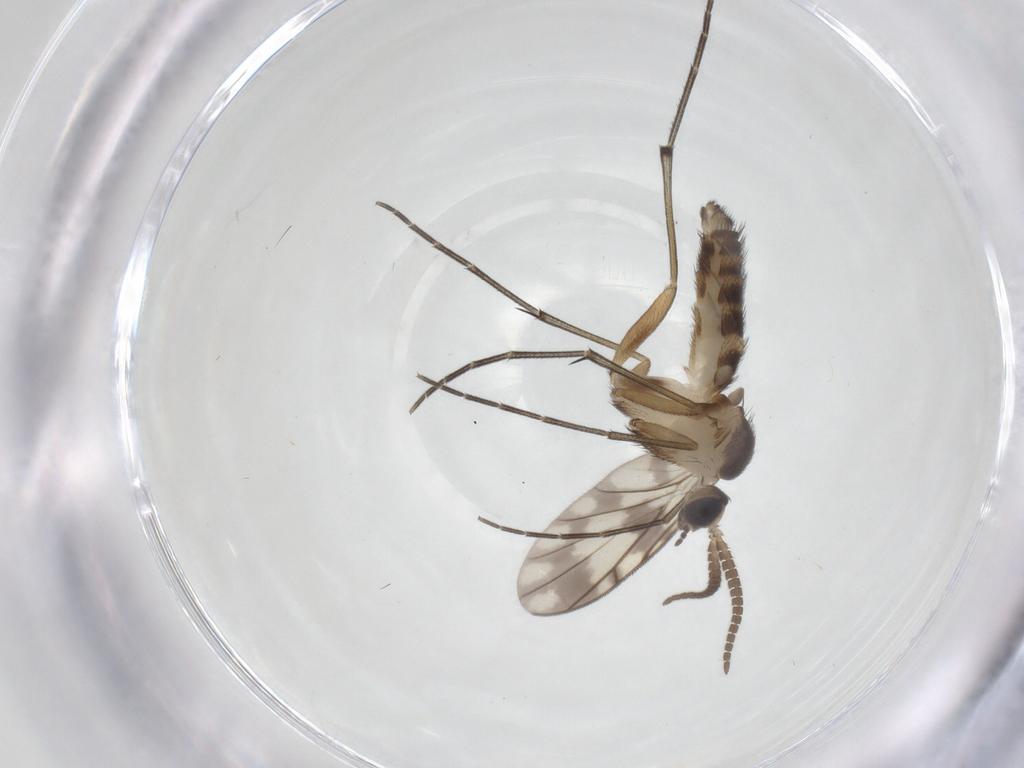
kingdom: Animalia
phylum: Arthropoda
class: Insecta
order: Diptera
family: Keroplatidae
